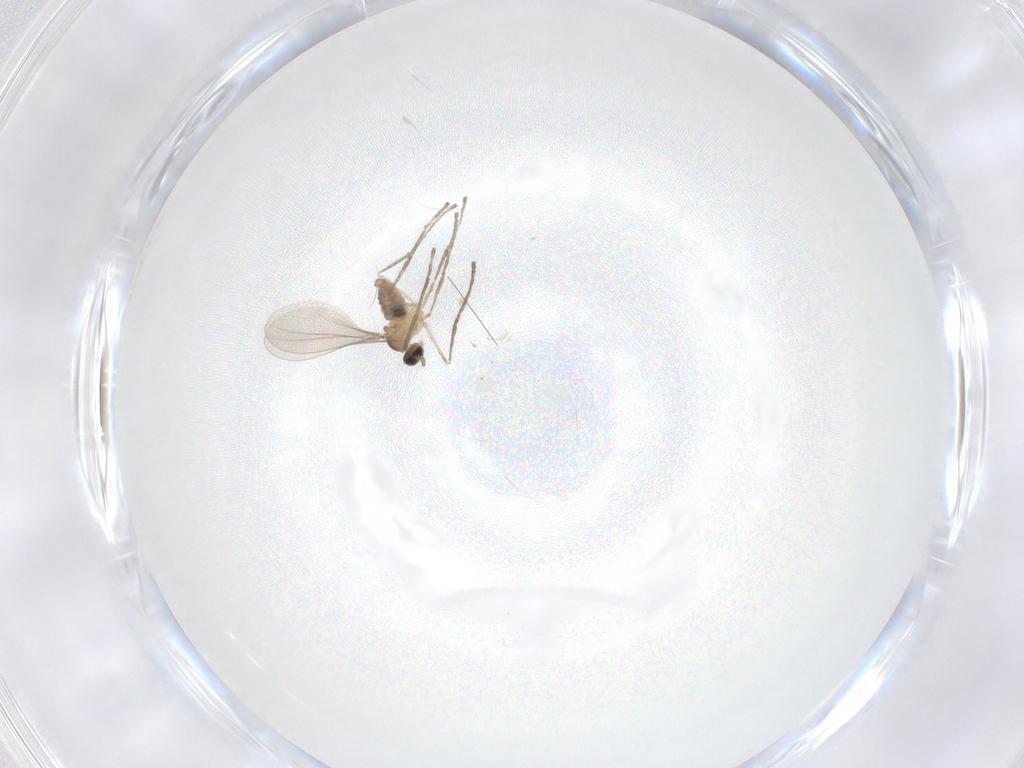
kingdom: Animalia
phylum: Arthropoda
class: Insecta
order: Diptera
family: Cecidomyiidae
